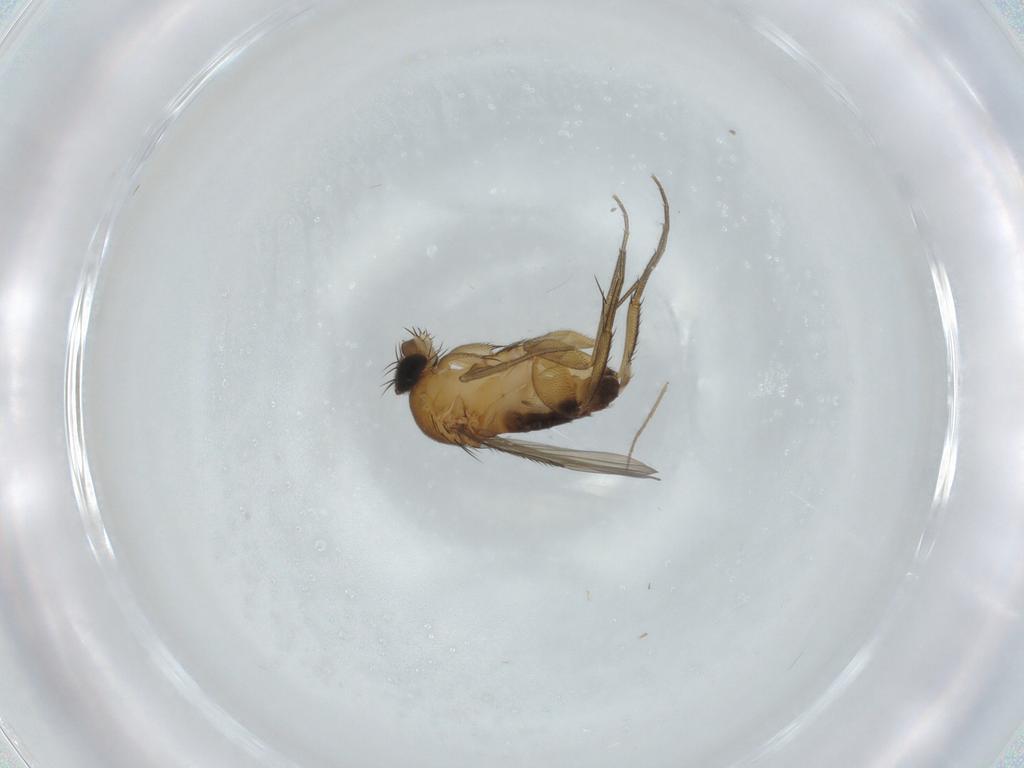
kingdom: Animalia
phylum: Arthropoda
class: Insecta
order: Diptera
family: Phoridae
